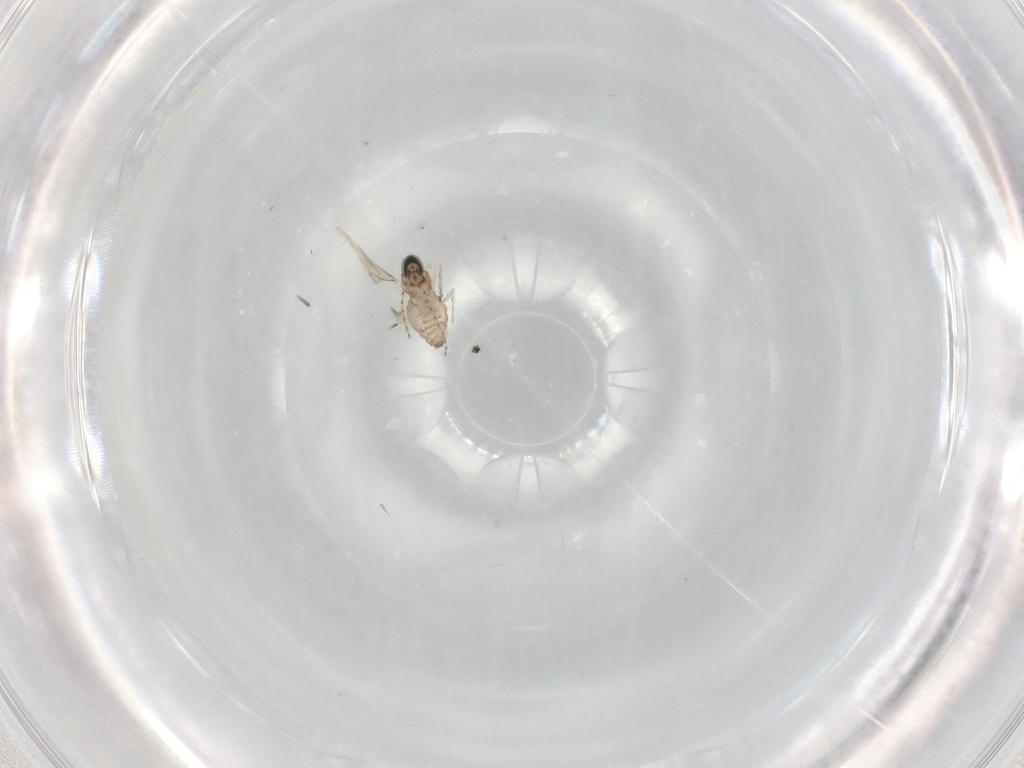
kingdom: Animalia
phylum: Arthropoda
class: Insecta
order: Diptera
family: Cecidomyiidae
